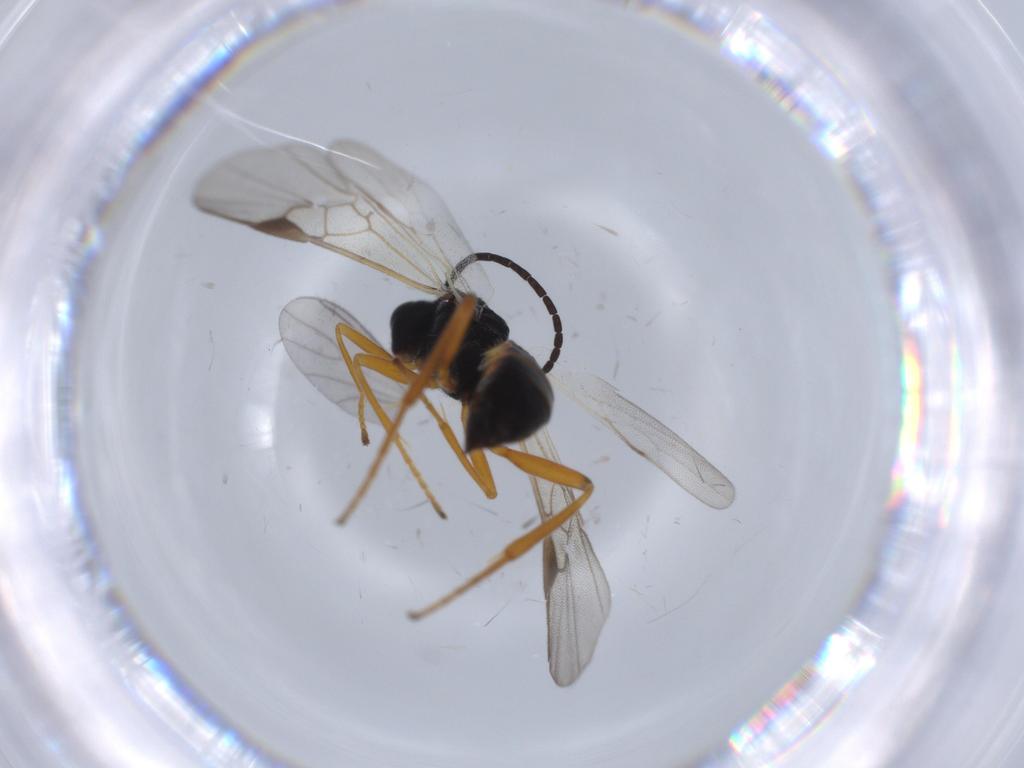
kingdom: Animalia
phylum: Arthropoda
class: Insecta
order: Hymenoptera
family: Braconidae
